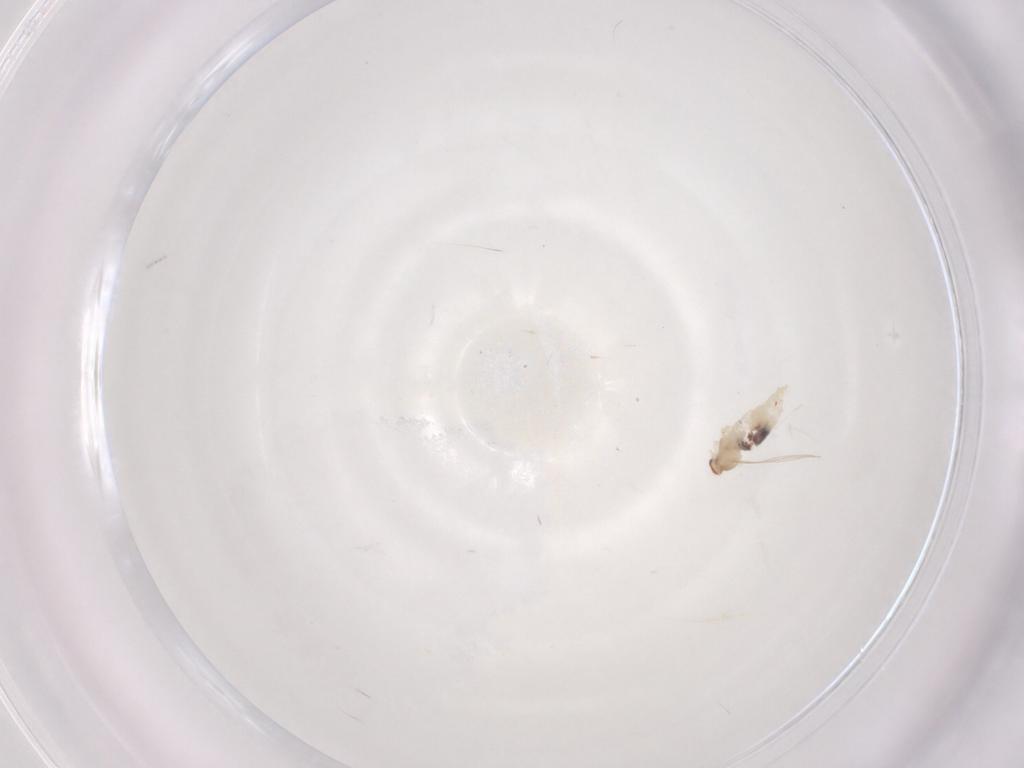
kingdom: Animalia
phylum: Arthropoda
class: Insecta
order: Diptera
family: Cecidomyiidae
